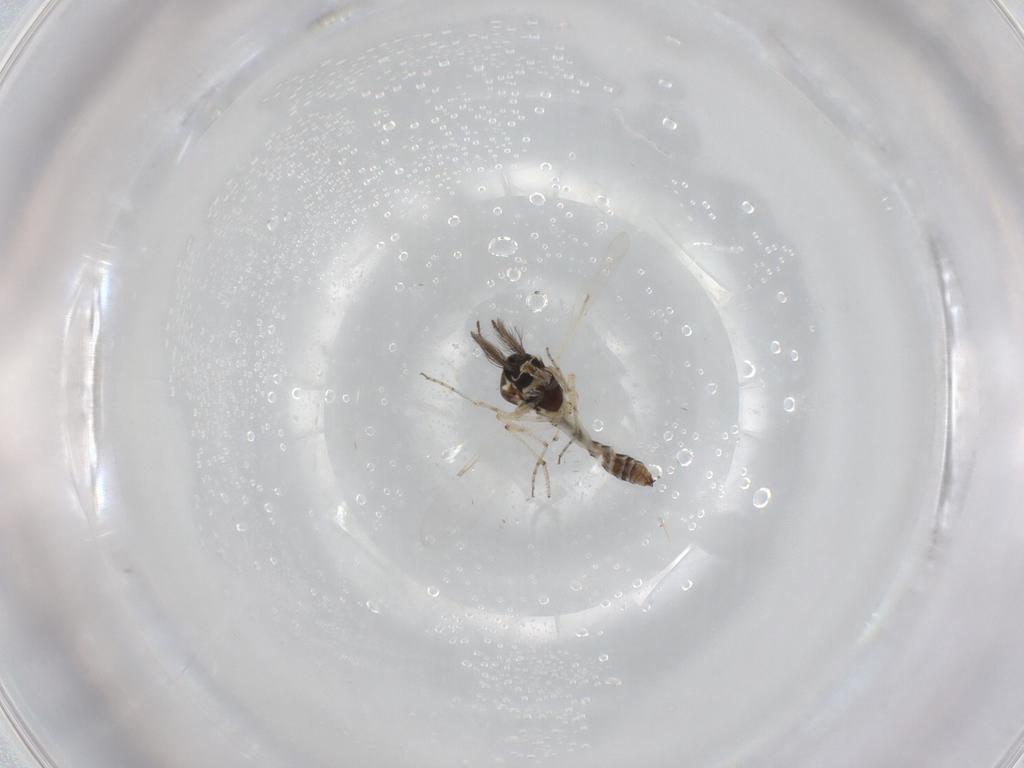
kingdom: Animalia
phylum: Arthropoda
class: Insecta
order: Diptera
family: Ceratopogonidae
